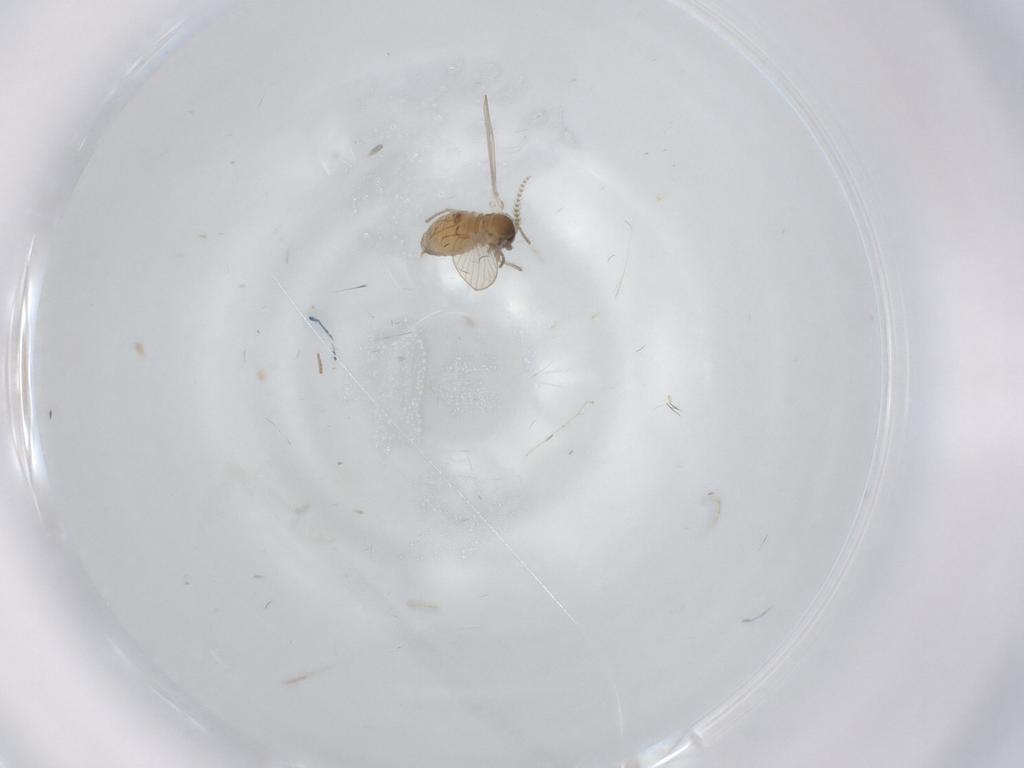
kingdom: Animalia
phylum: Arthropoda
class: Insecta
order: Diptera
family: Psychodidae
